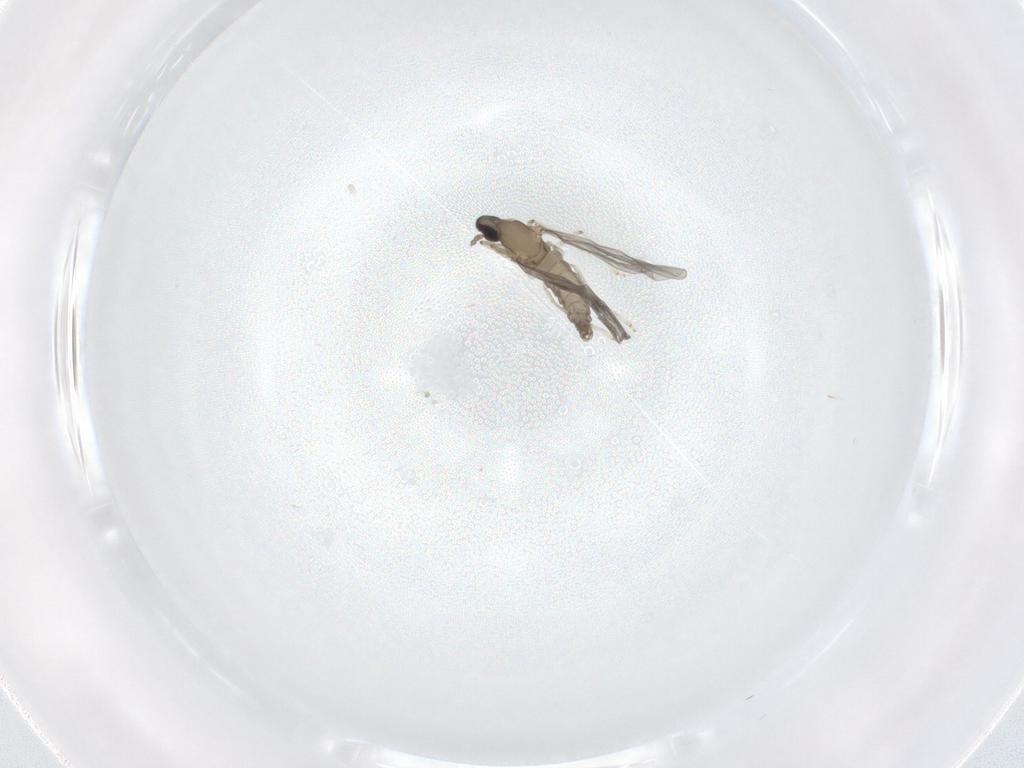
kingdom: Animalia
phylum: Arthropoda
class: Insecta
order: Diptera
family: Cecidomyiidae
